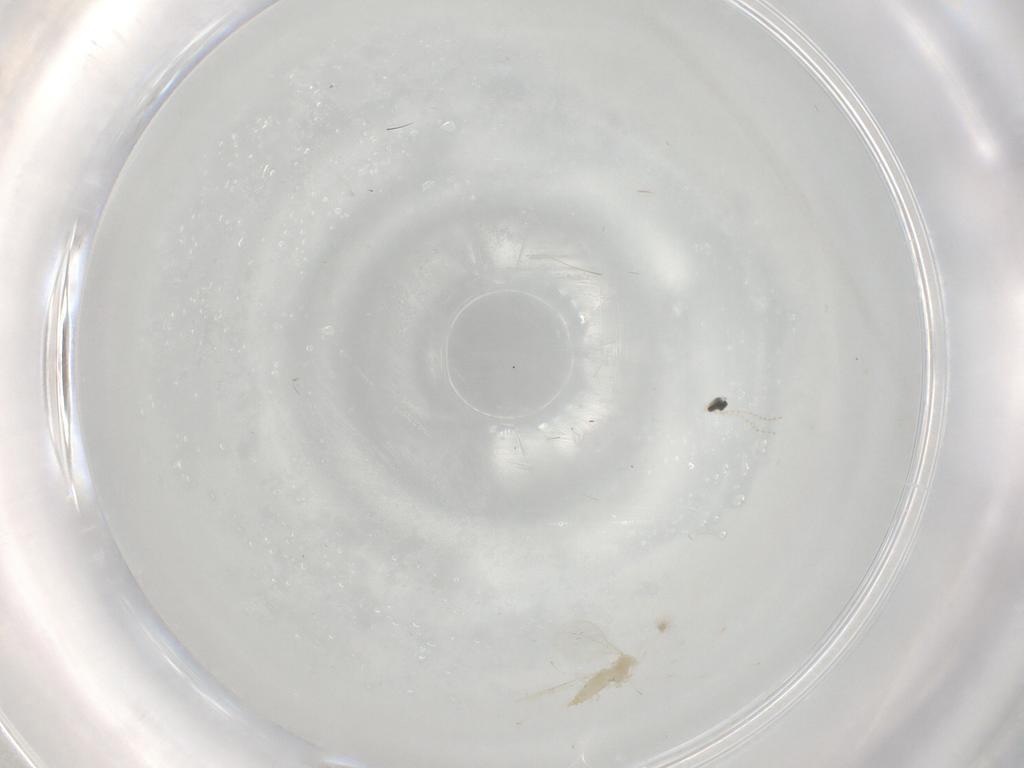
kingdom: Animalia
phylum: Arthropoda
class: Insecta
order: Diptera
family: Cecidomyiidae
